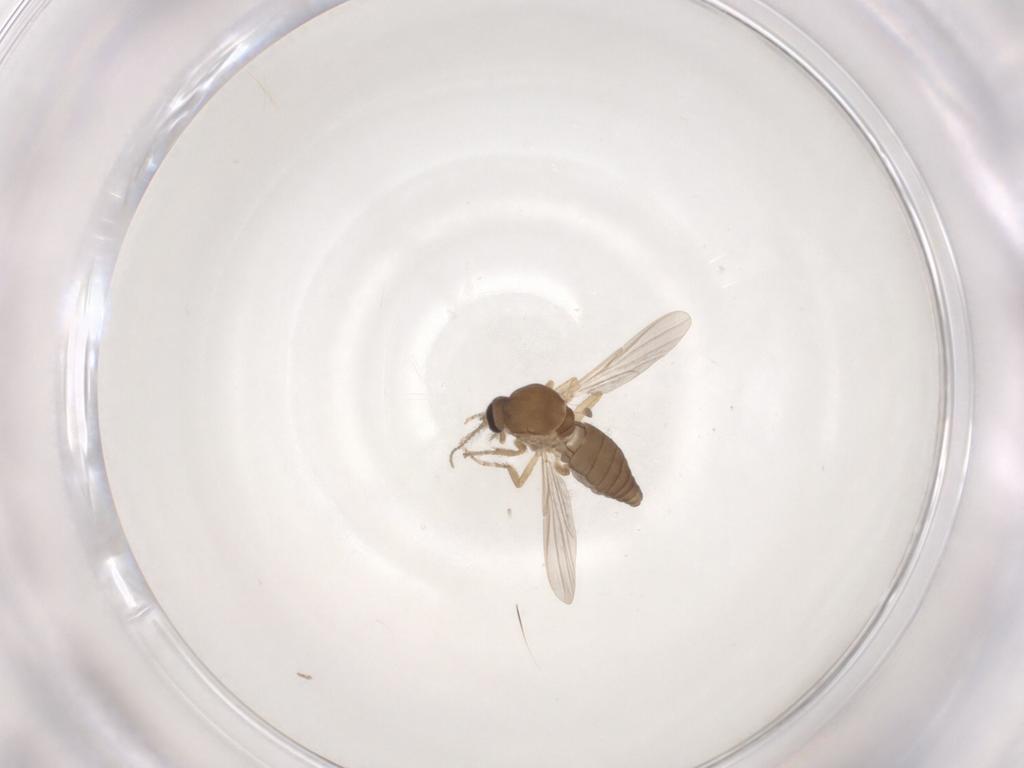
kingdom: Animalia
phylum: Arthropoda
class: Insecta
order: Diptera
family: Ceratopogonidae
